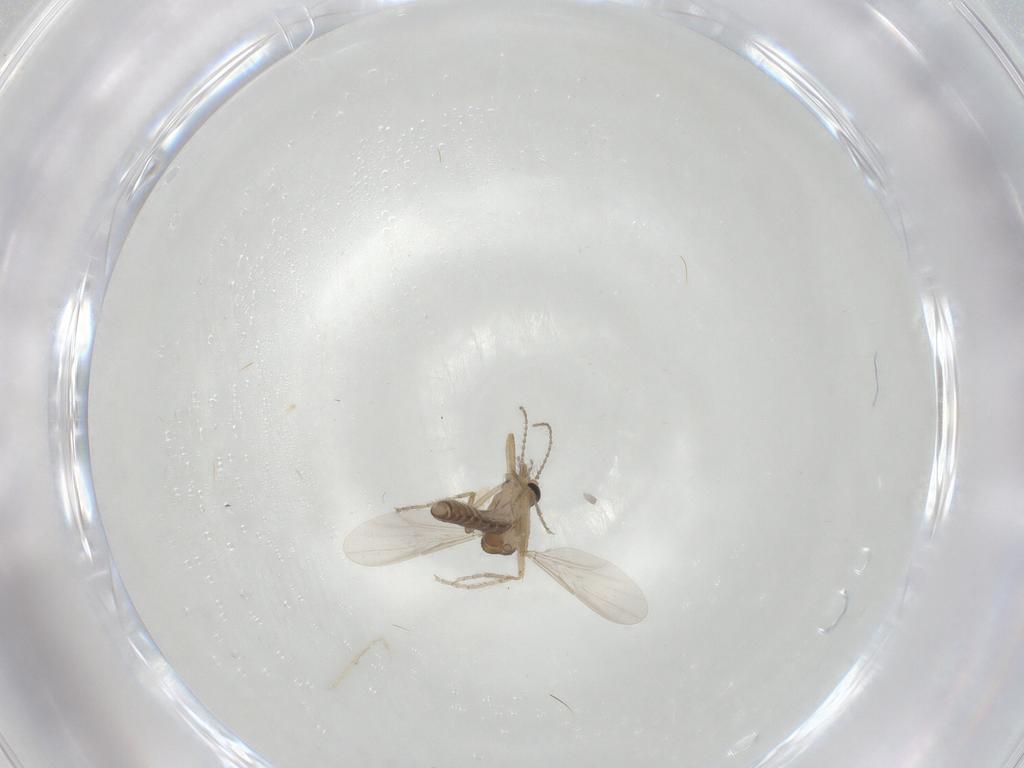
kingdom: Animalia
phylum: Arthropoda
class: Insecta
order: Diptera
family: Ceratopogonidae
